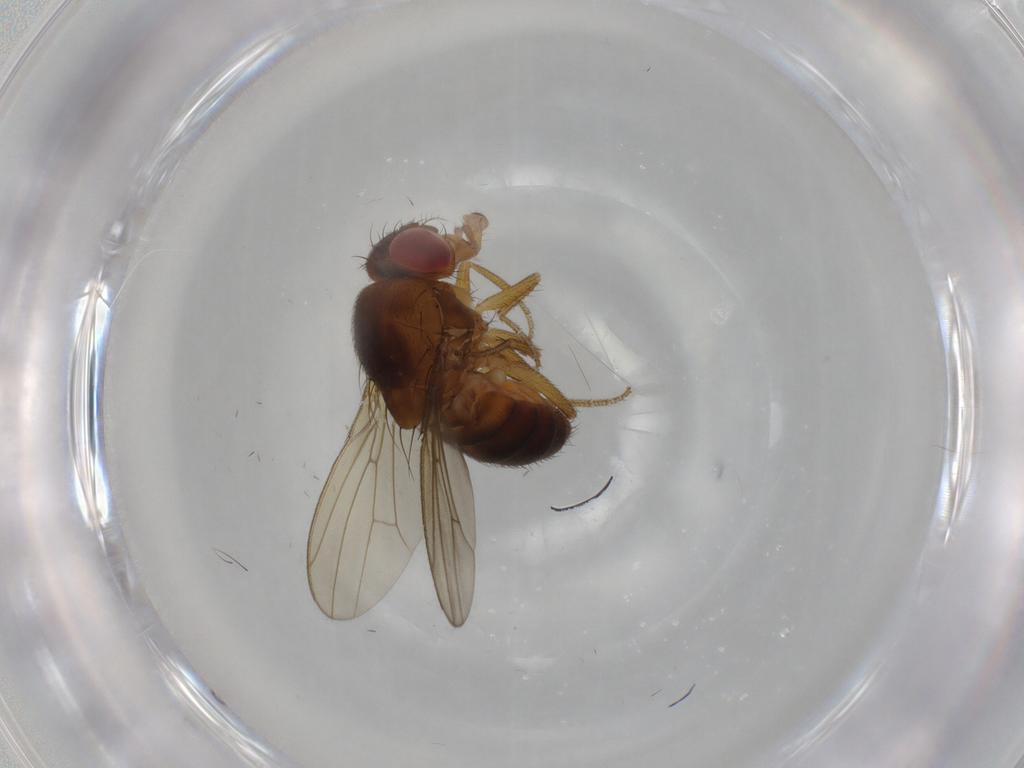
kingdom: Animalia
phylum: Arthropoda
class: Insecta
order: Diptera
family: Drosophilidae
